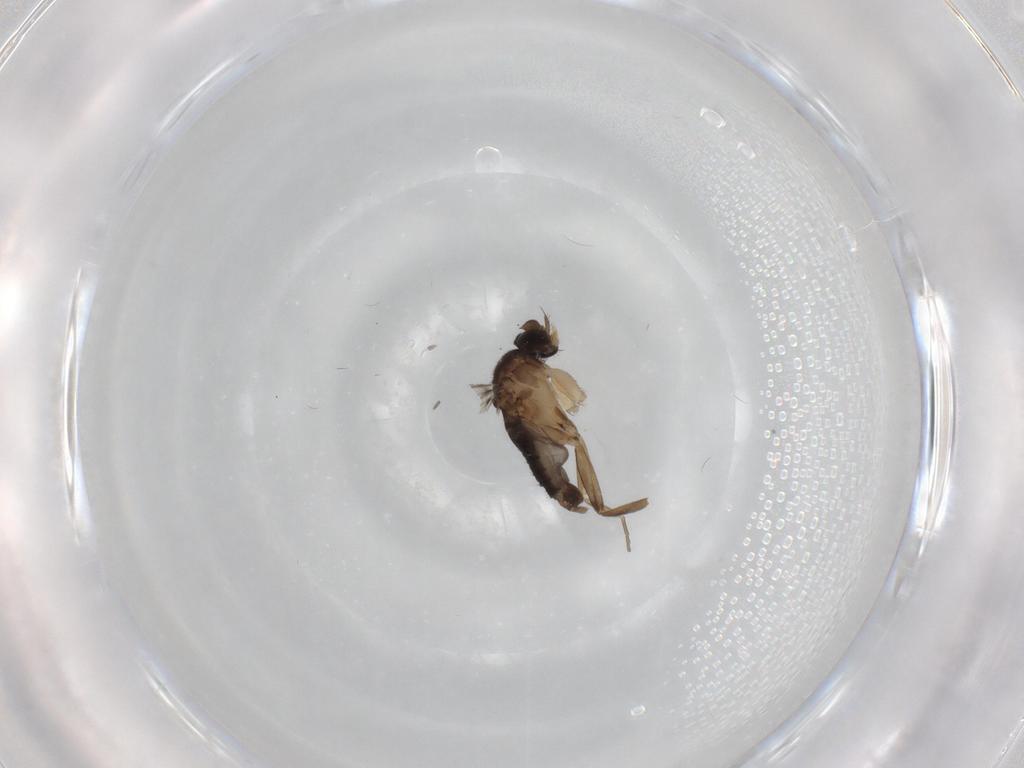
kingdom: Animalia
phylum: Arthropoda
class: Insecta
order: Diptera
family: Phoridae
